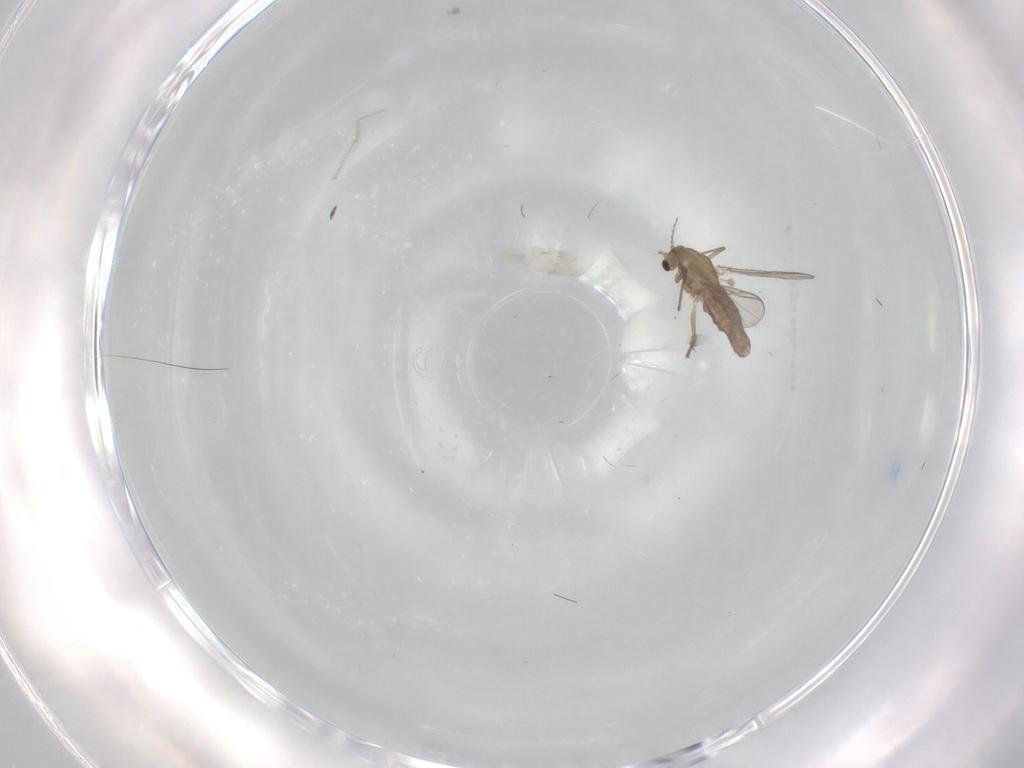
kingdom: Animalia
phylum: Arthropoda
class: Insecta
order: Diptera
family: Chironomidae
